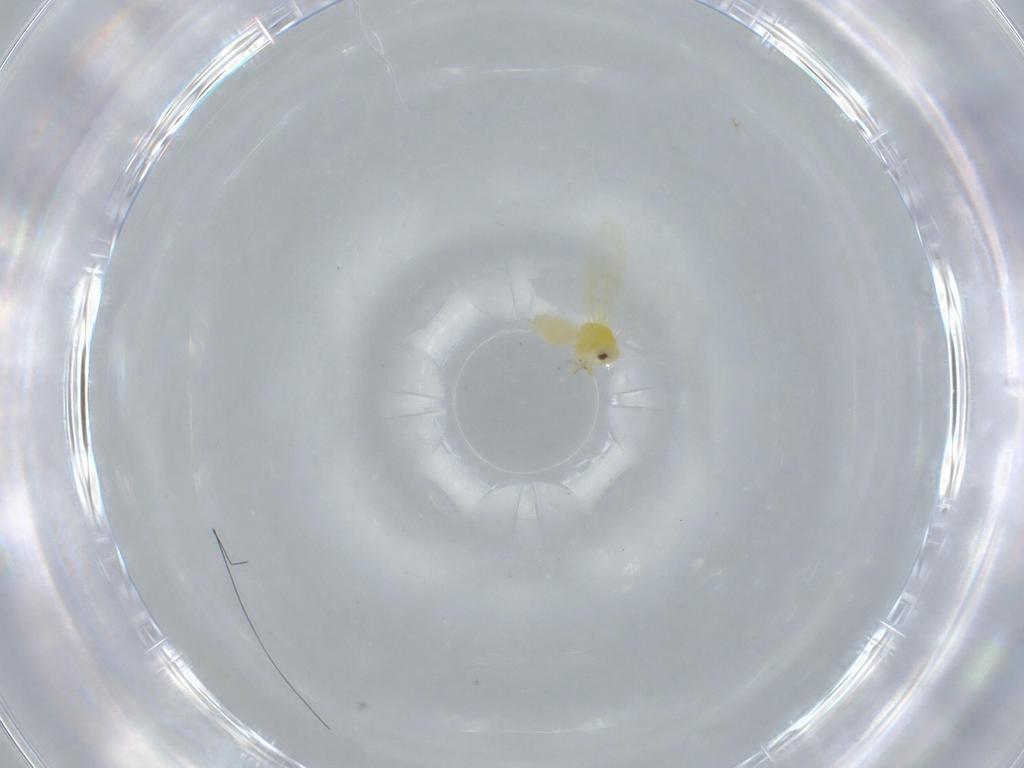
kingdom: Animalia
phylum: Arthropoda
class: Insecta
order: Hemiptera
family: Aleyrodidae
